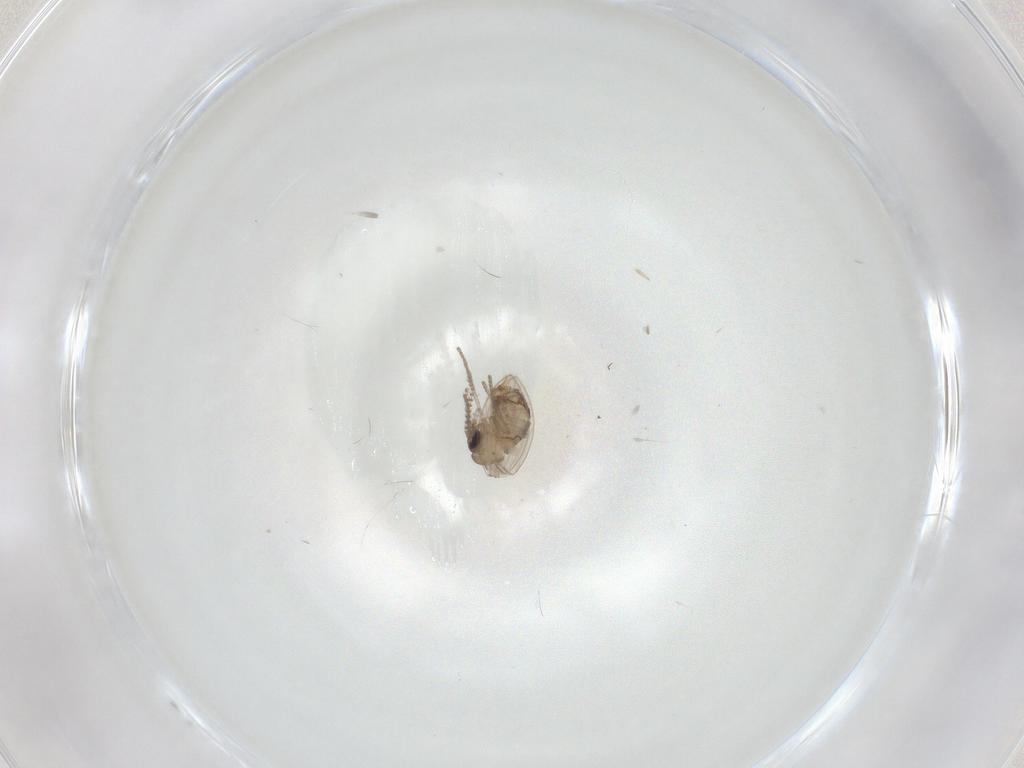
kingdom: Animalia
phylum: Arthropoda
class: Insecta
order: Diptera
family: Psychodidae
